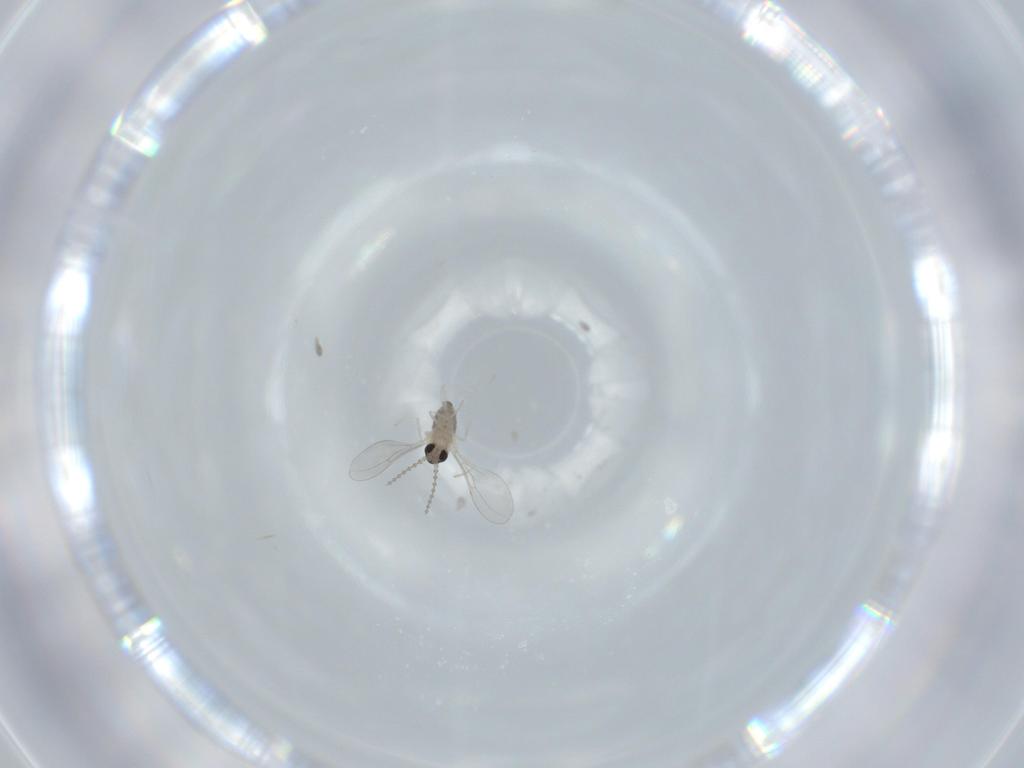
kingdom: Animalia
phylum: Arthropoda
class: Insecta
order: Diptera
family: Cecidomyiidae
